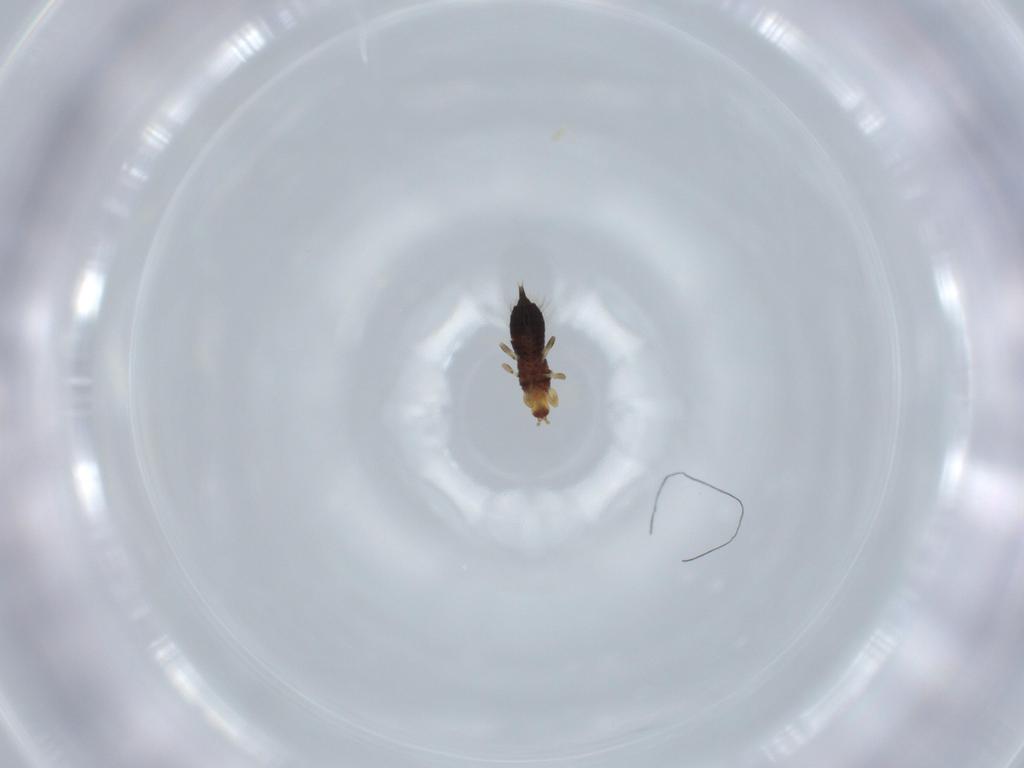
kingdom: Animalia
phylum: Arthropoda
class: Insecta
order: Thysanoptera
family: Phlaeothripidae
